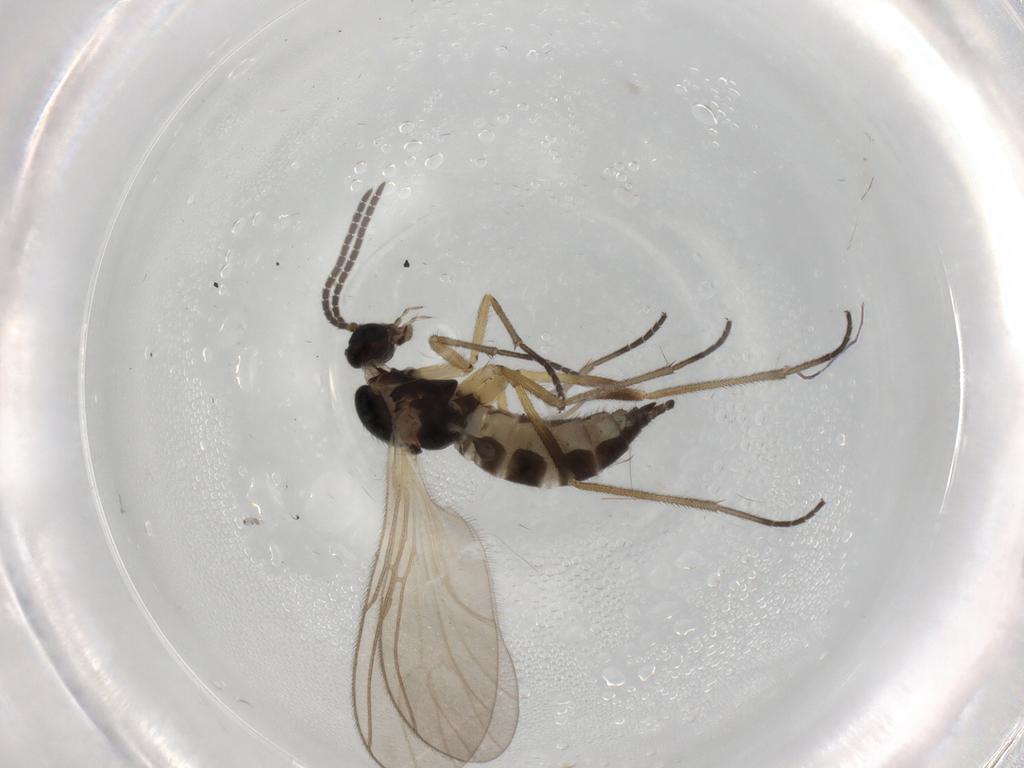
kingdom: Animalia
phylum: Arthropoda
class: Insecta
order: Diptera
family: Sciaridae
